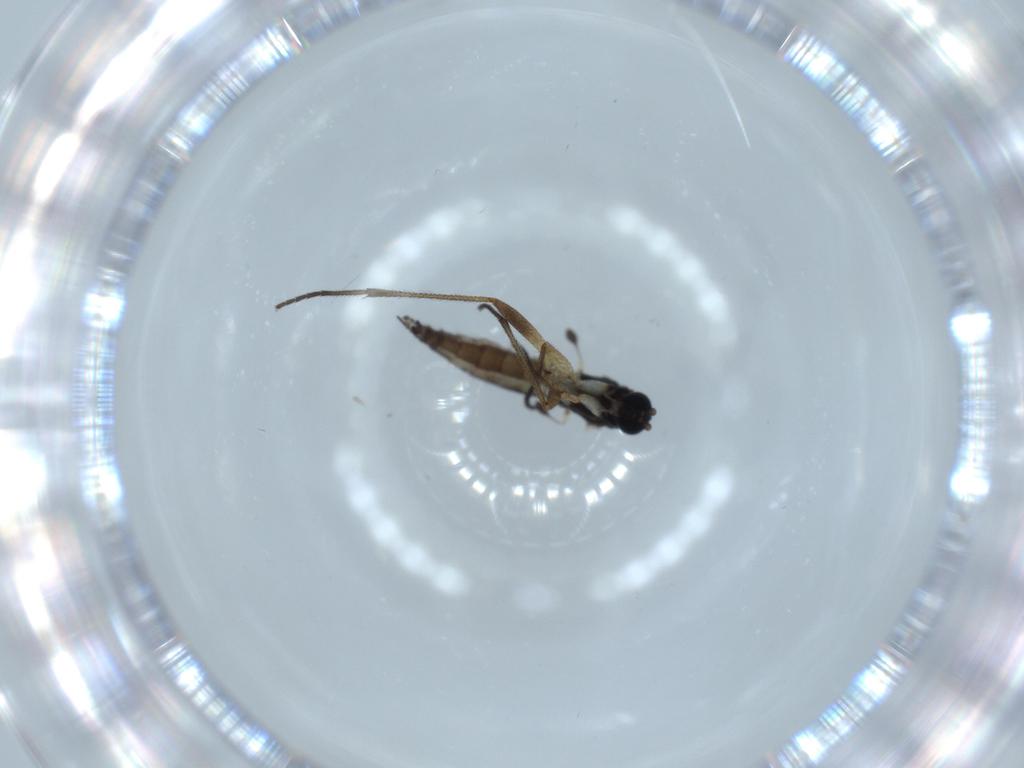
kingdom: Animalia
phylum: Arthropoda
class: Insecta
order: Diptera
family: Sciaridae
